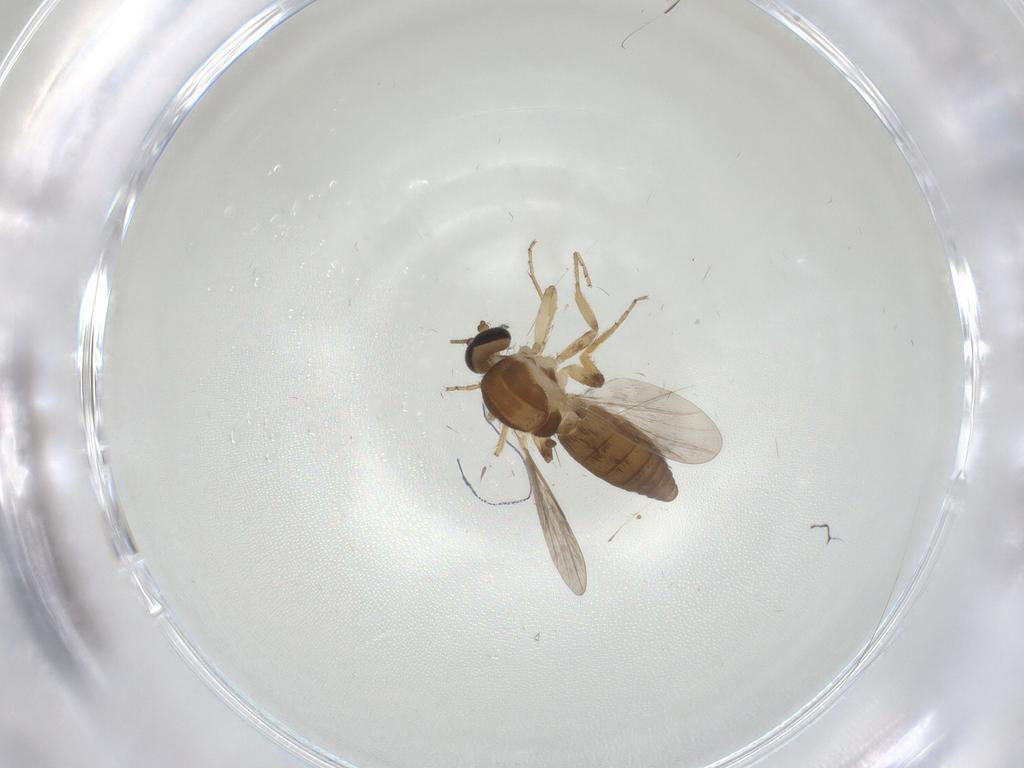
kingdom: Animalia
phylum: Arthropoda
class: Insecta
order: Diptera
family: Ceratopogonidae
